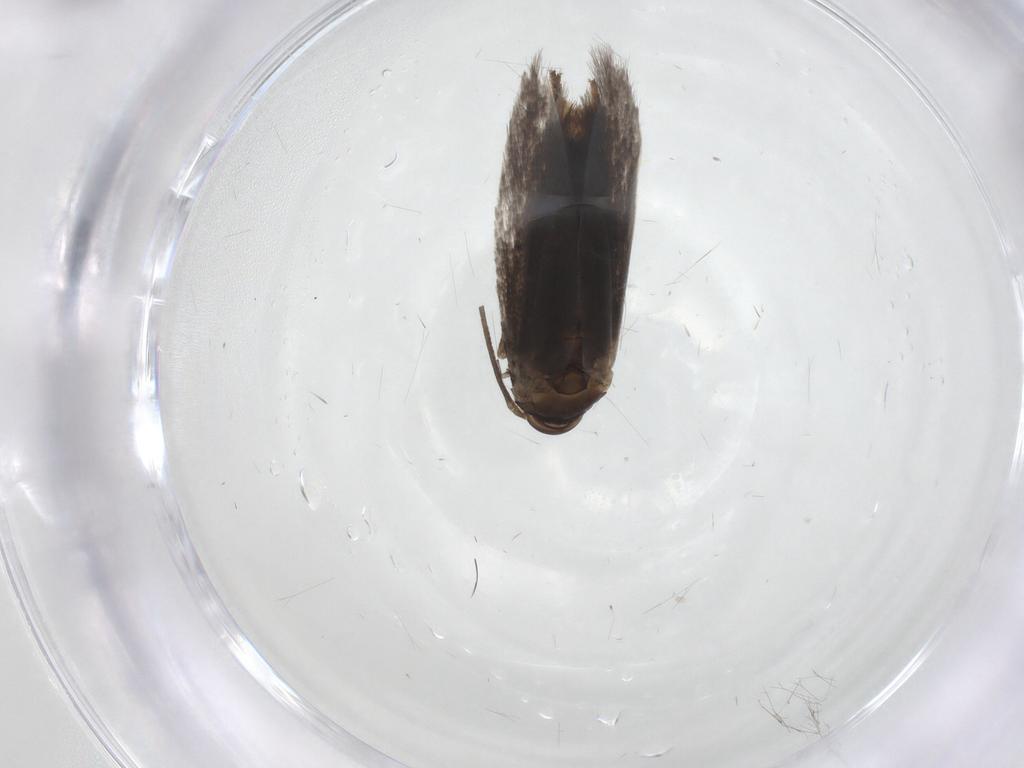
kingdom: Animalia
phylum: Arthropoda
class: Insecta
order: Lepidoptera
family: Elachistidae
